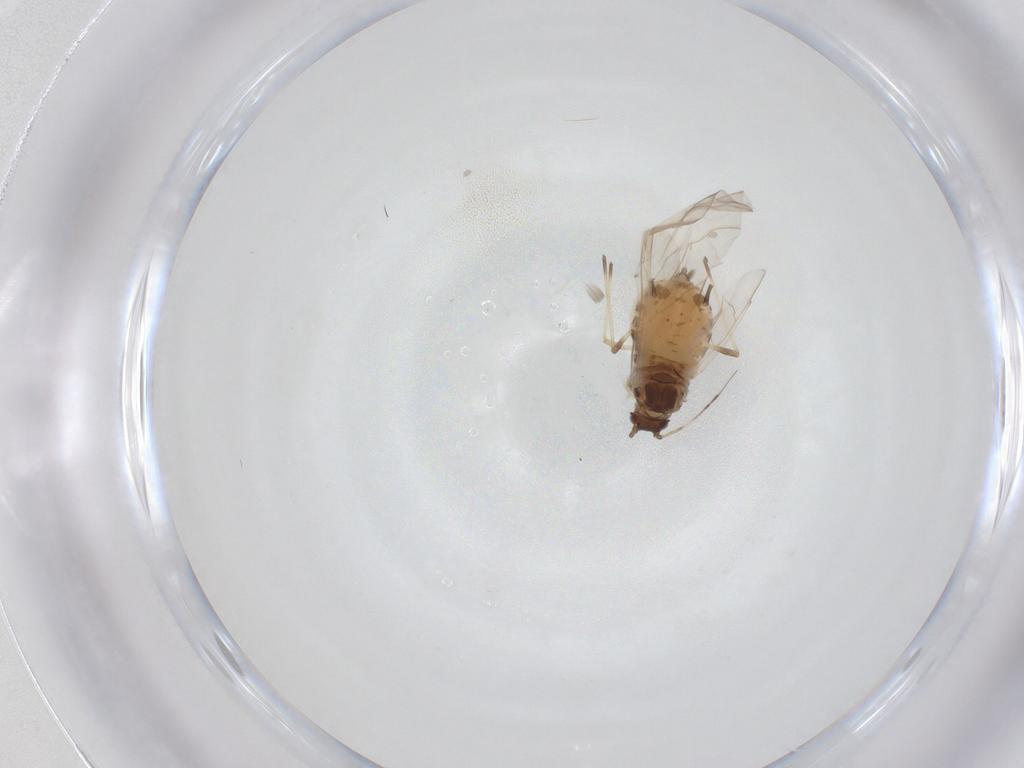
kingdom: Animalia
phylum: Arthropoda
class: Insecta
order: Hemiptera
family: Aphididae
